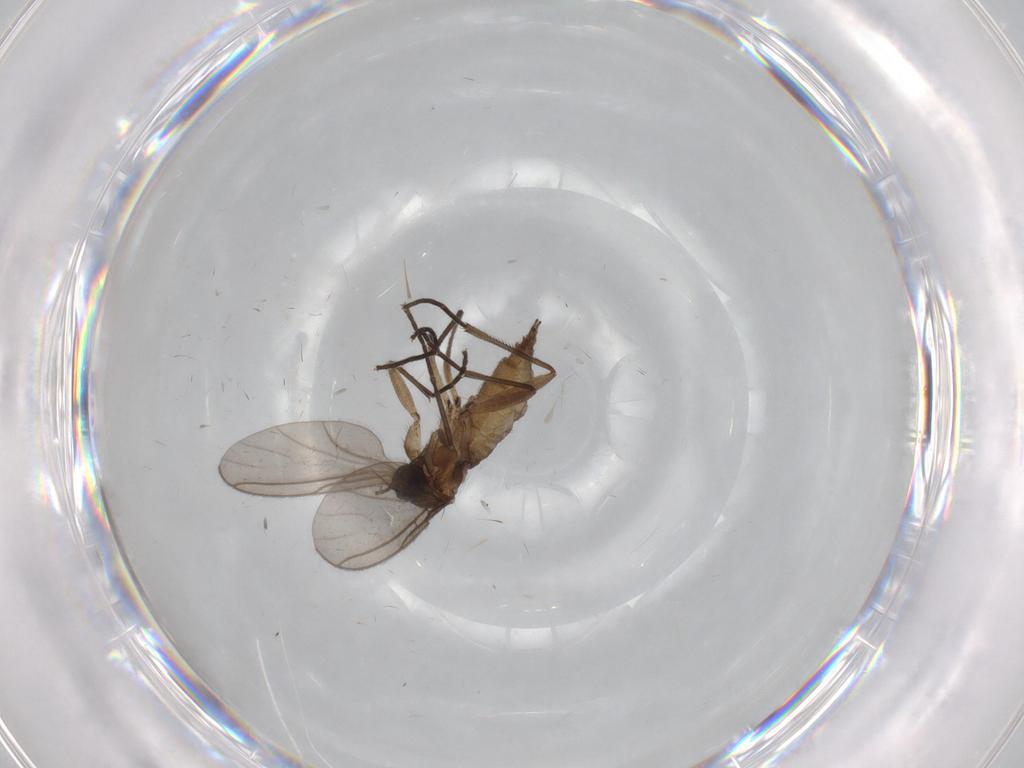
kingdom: Animalia
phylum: Arthropoda
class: Insecta
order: Diptera
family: Sciaridae
